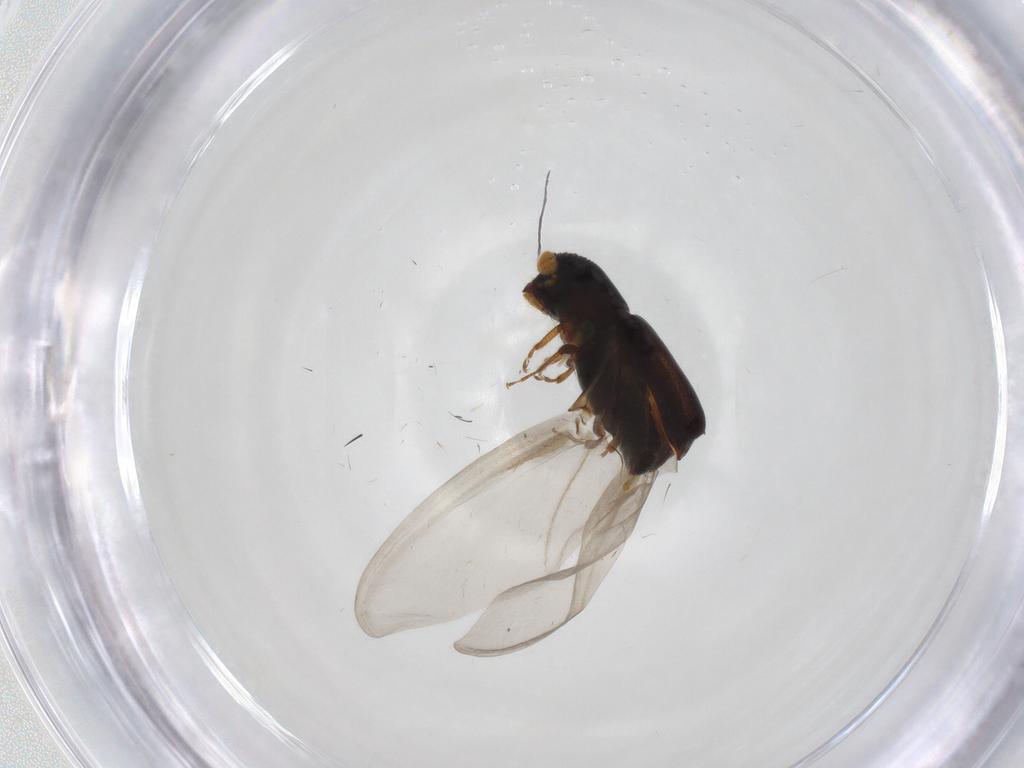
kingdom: Animalia
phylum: Arthropoda
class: Insecta
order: Coleoptera
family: Curculionidae
